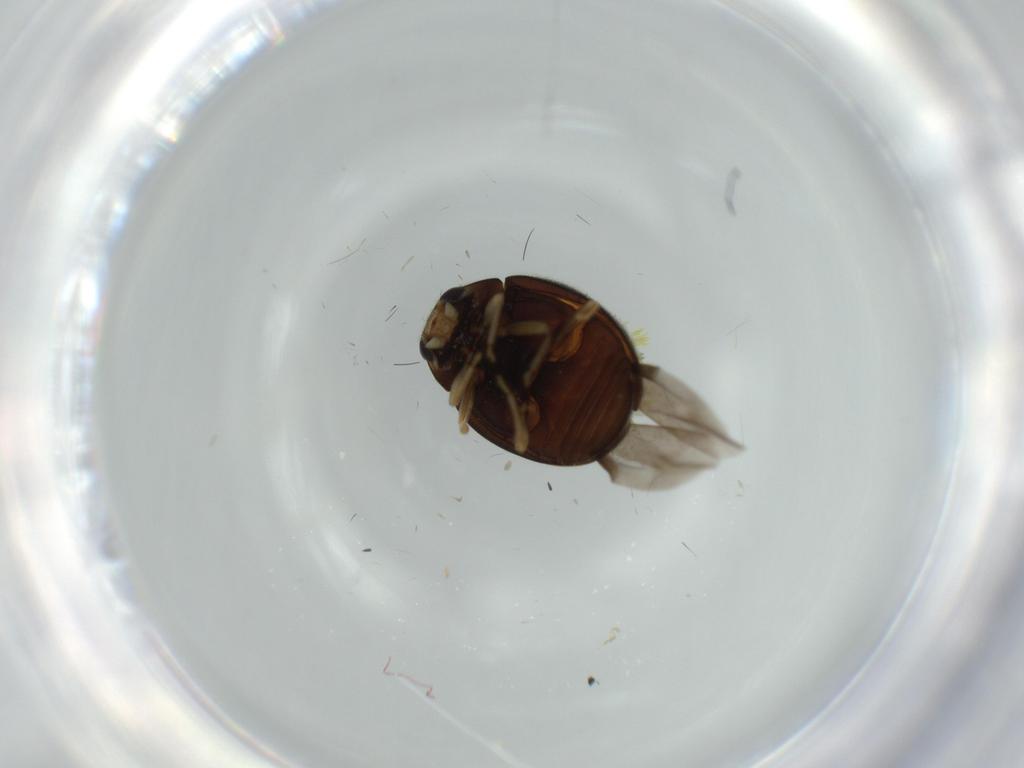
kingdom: Animalia
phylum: Arthropoda
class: Insecta
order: Coleoptera
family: Coccinellidae
